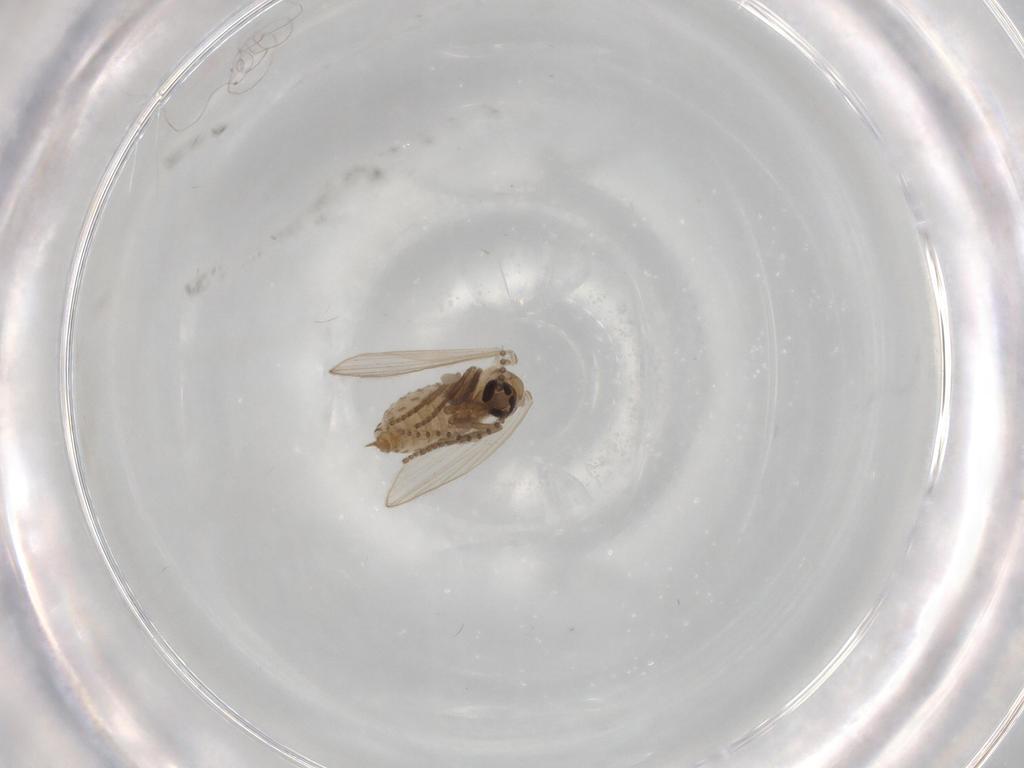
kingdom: Animalia
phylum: Arthropoda
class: Insecta
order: Diptera
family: Psychodidae
